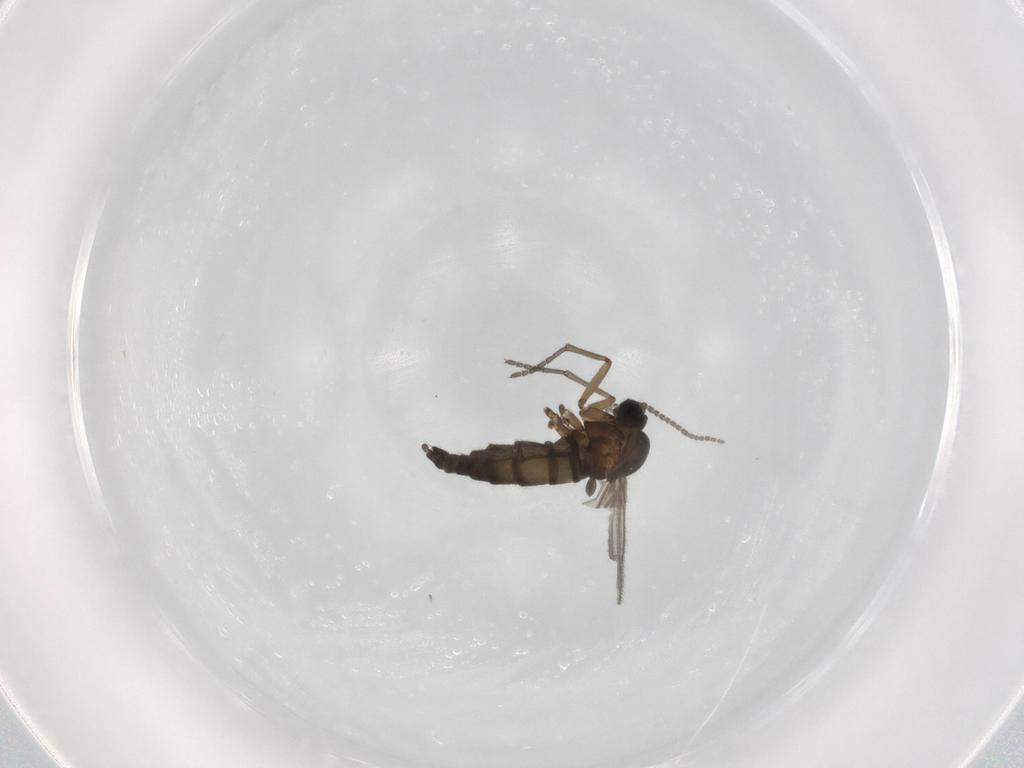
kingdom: Animalia
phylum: Arthropoda
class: Insecta
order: Diptera
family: Sciaridae
